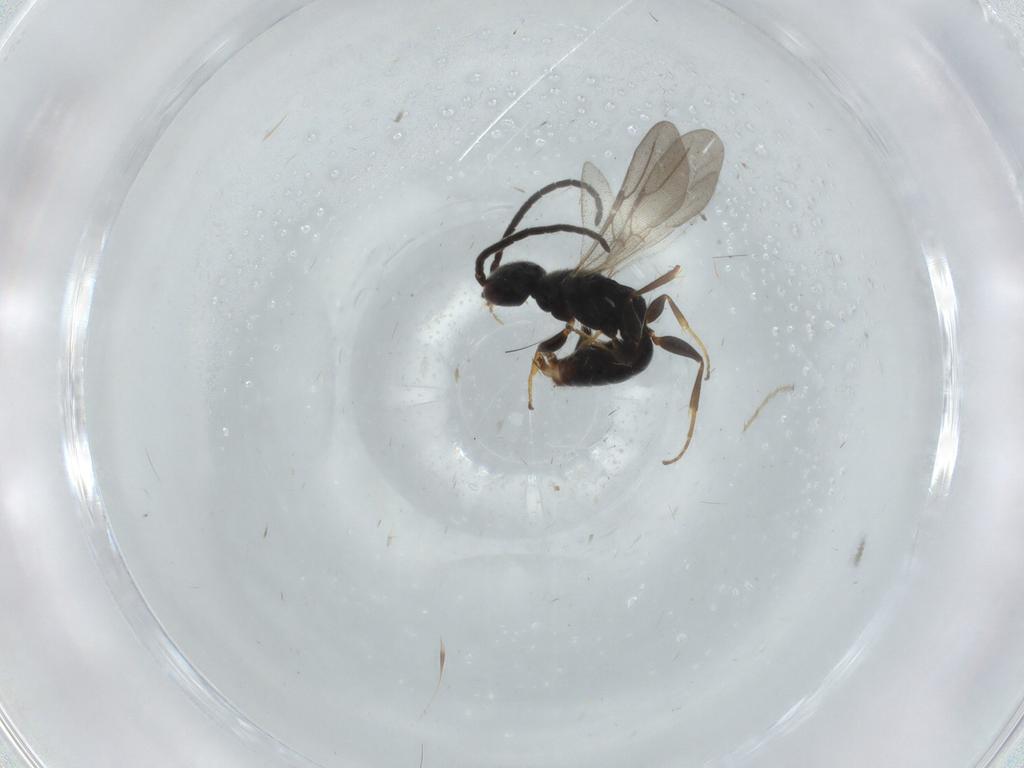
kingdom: Animalia
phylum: Arthropoda
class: Insecta
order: Hymenoptera
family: Bethylidae
